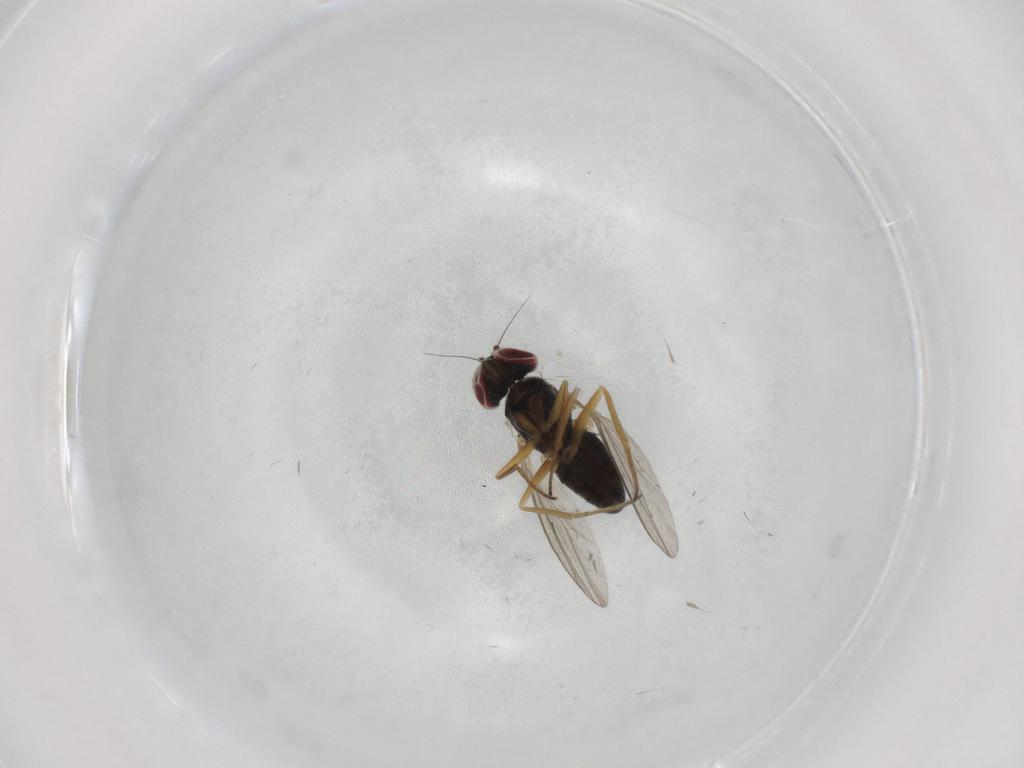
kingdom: Animalia
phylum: Arthropoda
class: Insecta
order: Diptera
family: Dolichopodidae
